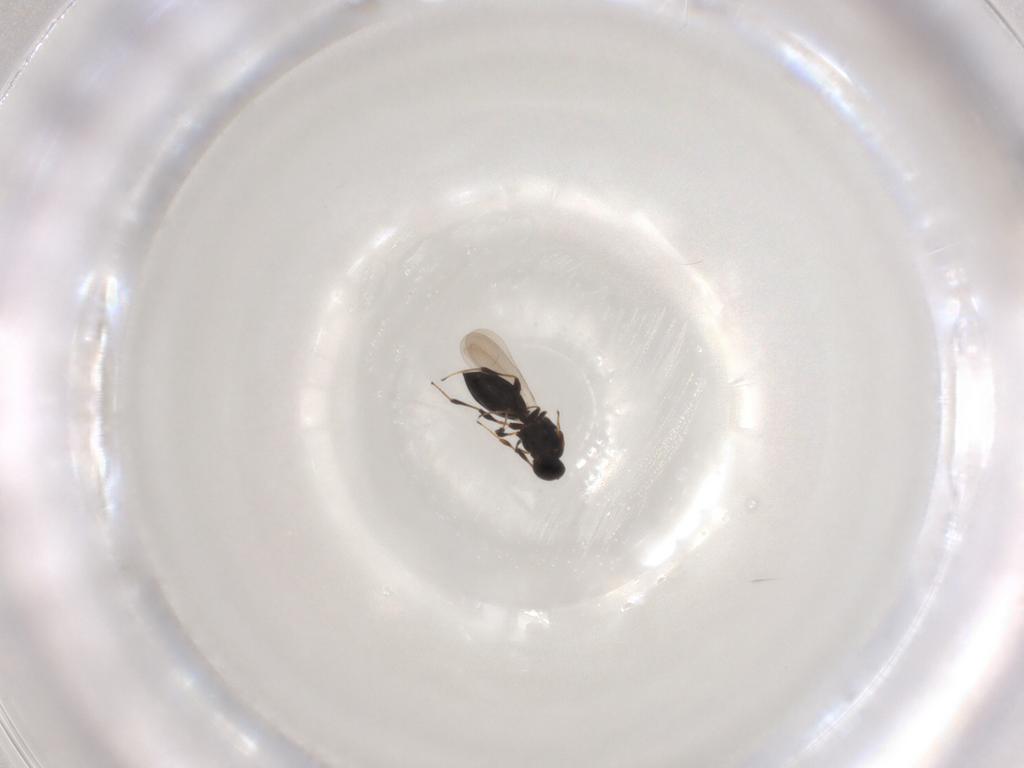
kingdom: Animalia
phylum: Arthropoda
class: Insecta
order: Hymenoptera
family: Platygastridae
